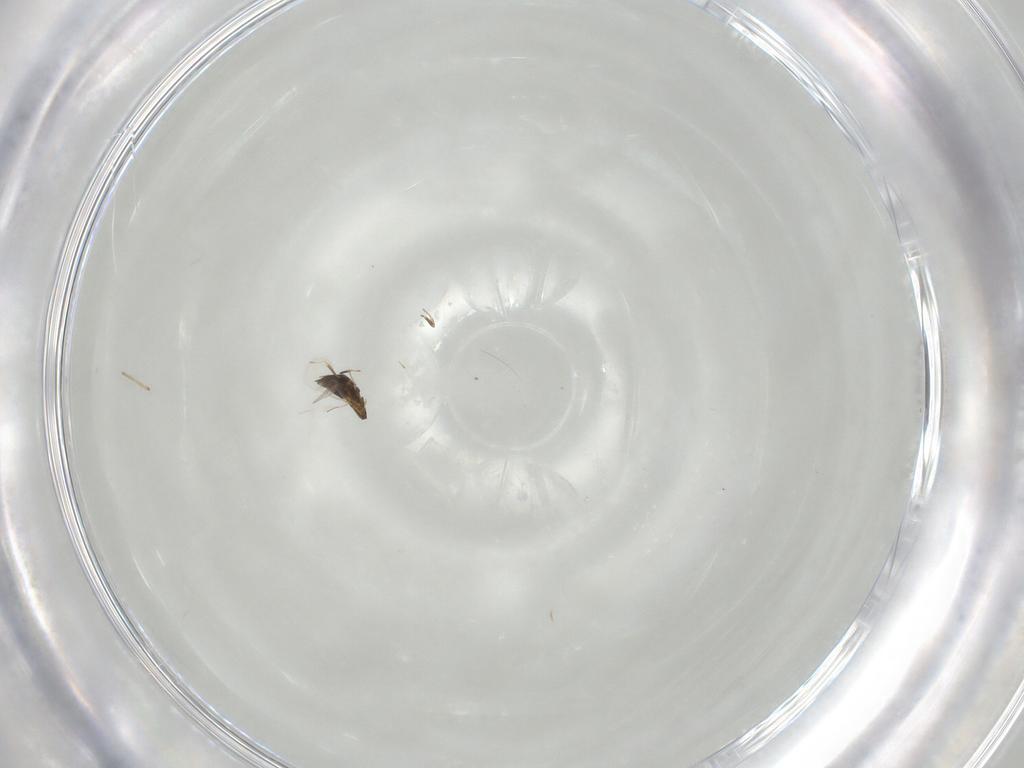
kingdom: Animalia
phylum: Arthropoda
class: Insecta
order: Hymenoptera
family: Trichogrammatidae
